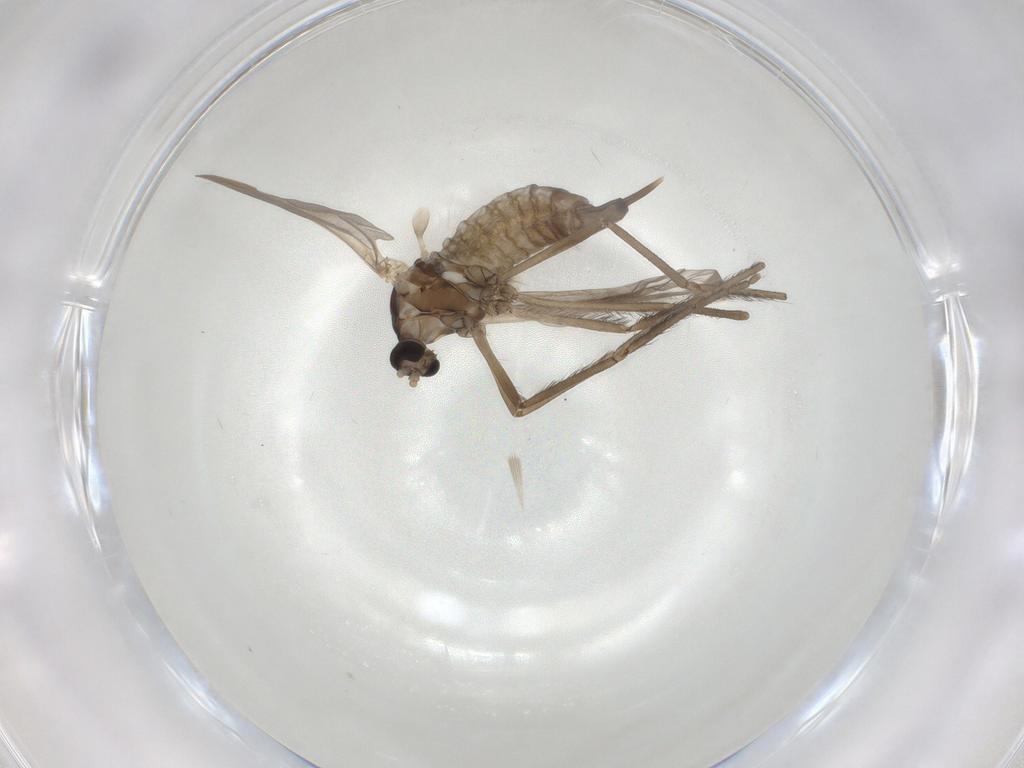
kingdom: Animalia
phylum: Arthropoda
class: Insecta
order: Diptera
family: Cecidomyiidae
